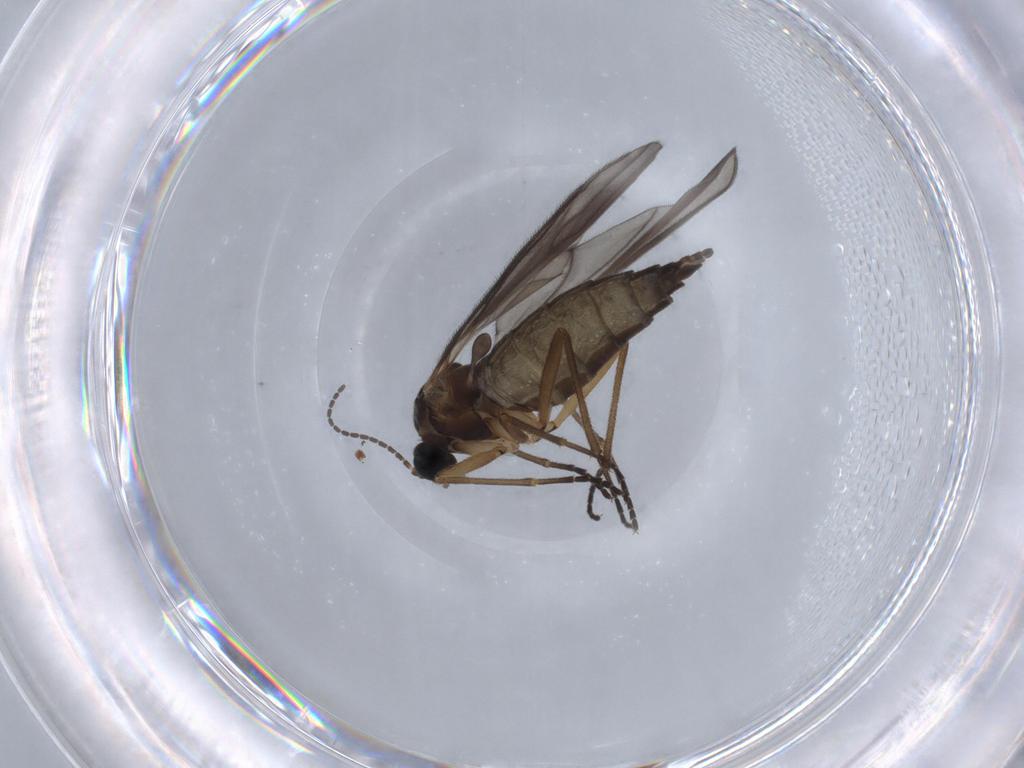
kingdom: Animalia
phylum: Arthropoda
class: Insecta
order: Diptera
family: Sciaridae
